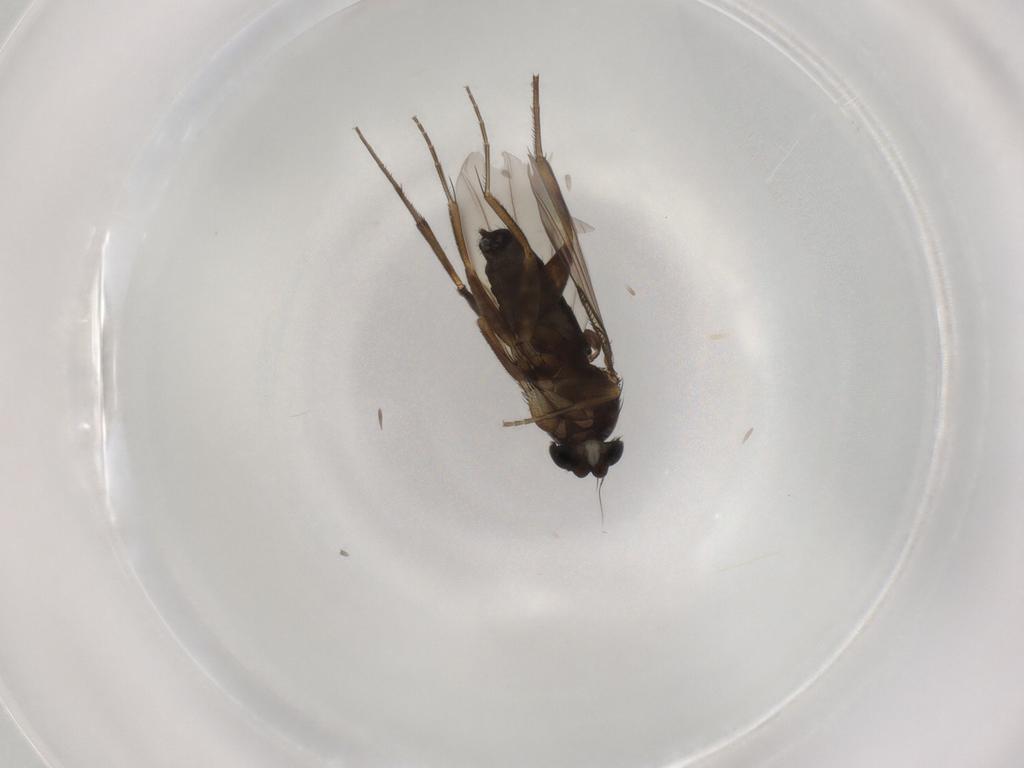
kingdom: Animalia
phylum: Arthropoda
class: Insecta
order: Diptera
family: Phoridae
